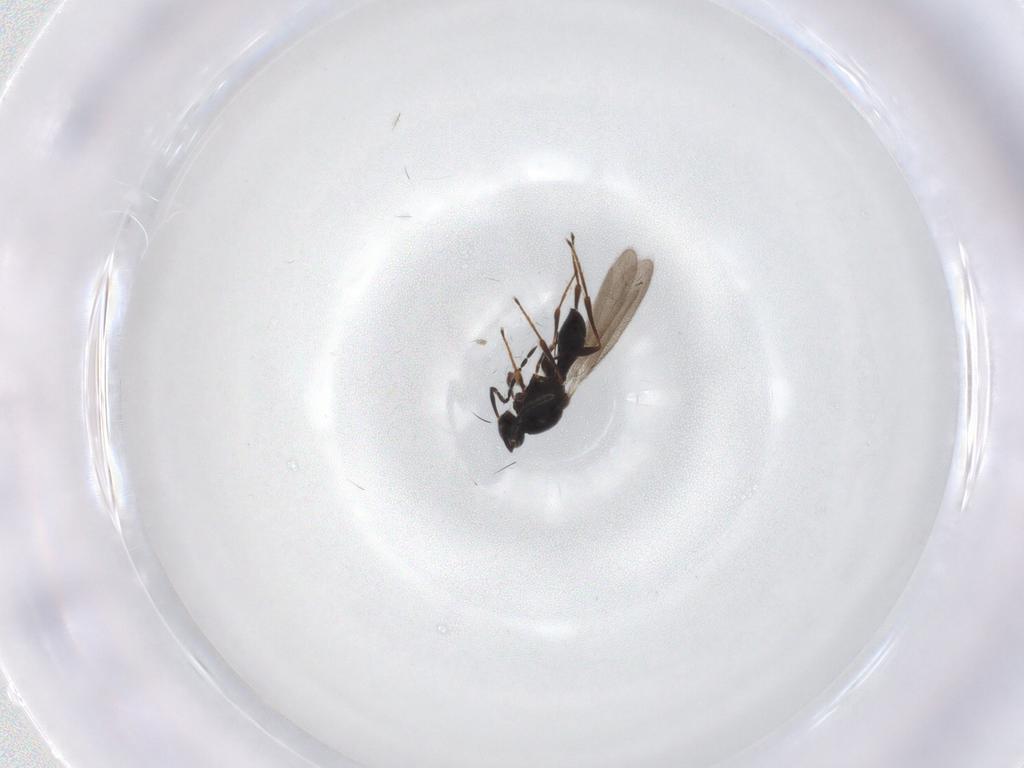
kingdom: Animalia
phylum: Arthropoda
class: Insecta
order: Hymenoptera
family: Platygastridae
